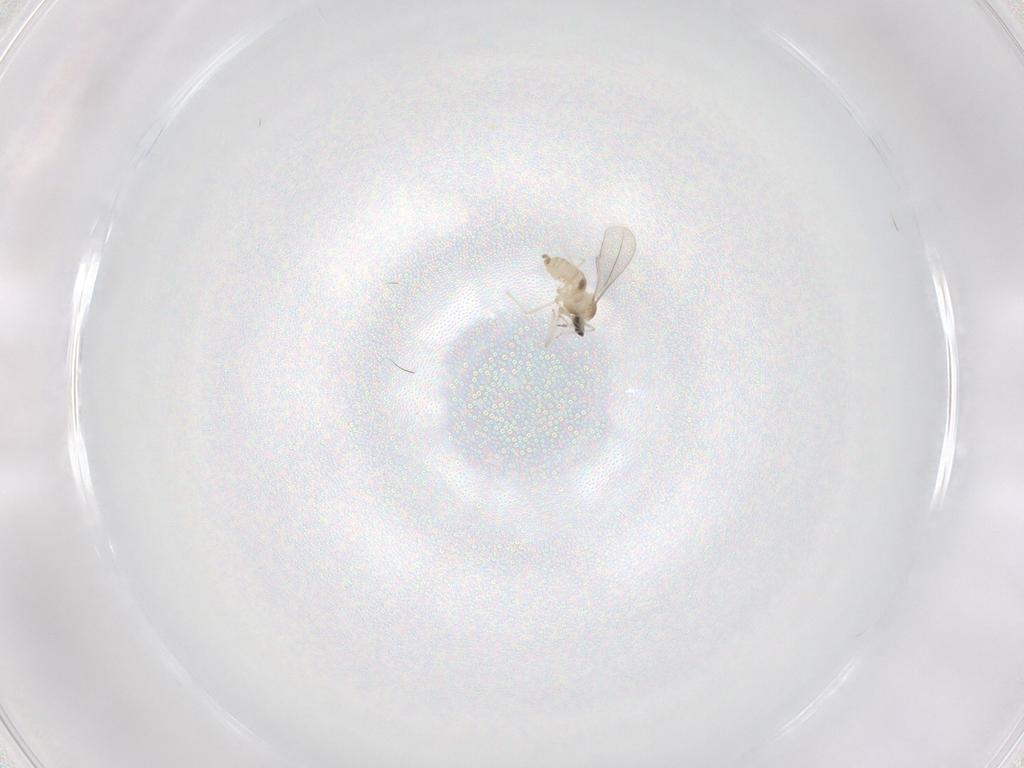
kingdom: Animalia
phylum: Arthropoda
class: Insecta
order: Diptera
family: Cecidomyiidae
